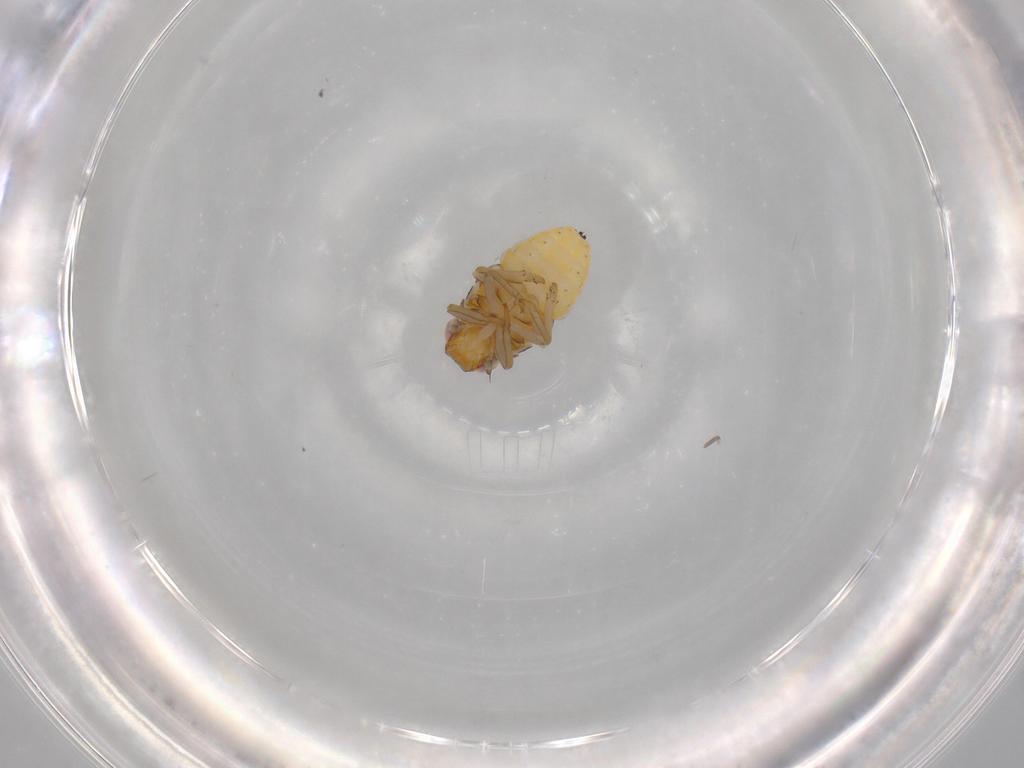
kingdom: Animalia
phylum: Arthropoda
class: Insecta
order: Hemiptera
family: Issidae
